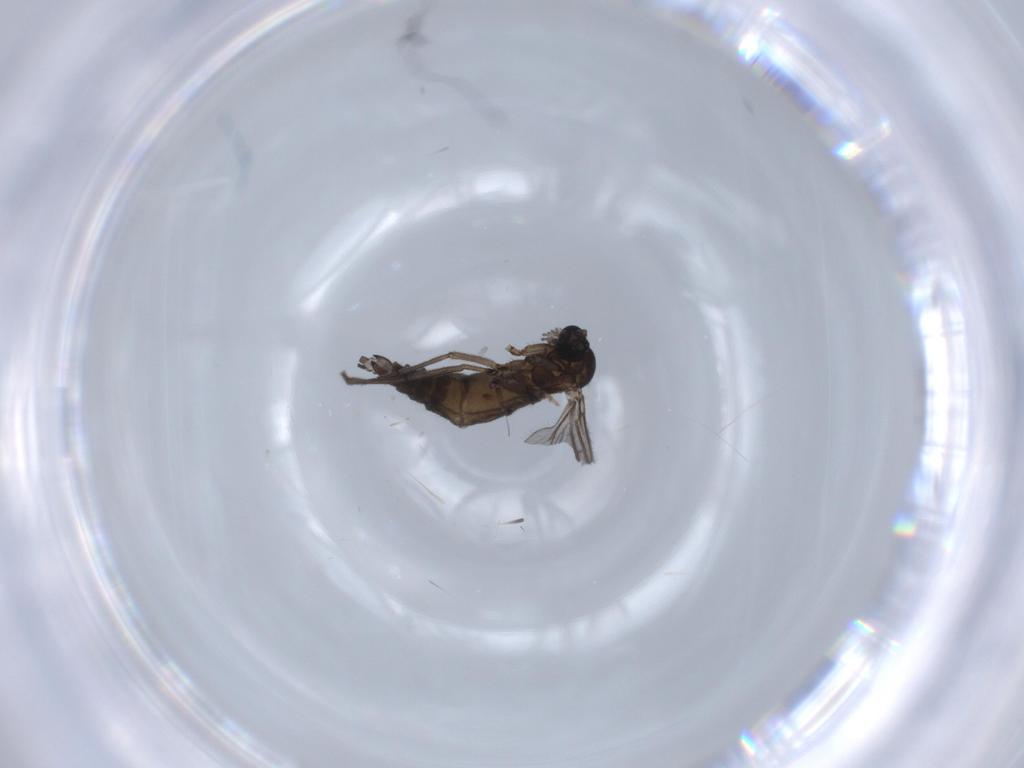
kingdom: Animalia
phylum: Arthropoda
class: Insecta
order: Diptera
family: Sciaridae
